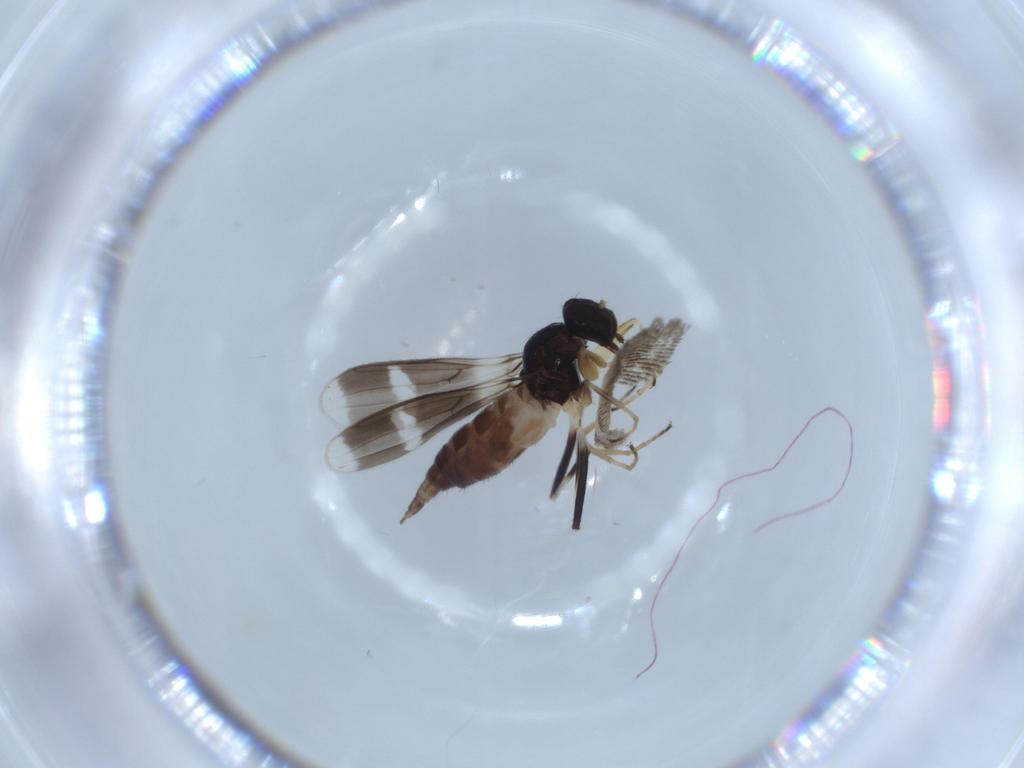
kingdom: Animalia
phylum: Arthropoda
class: Insecta
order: Diptera
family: Hybotidae
